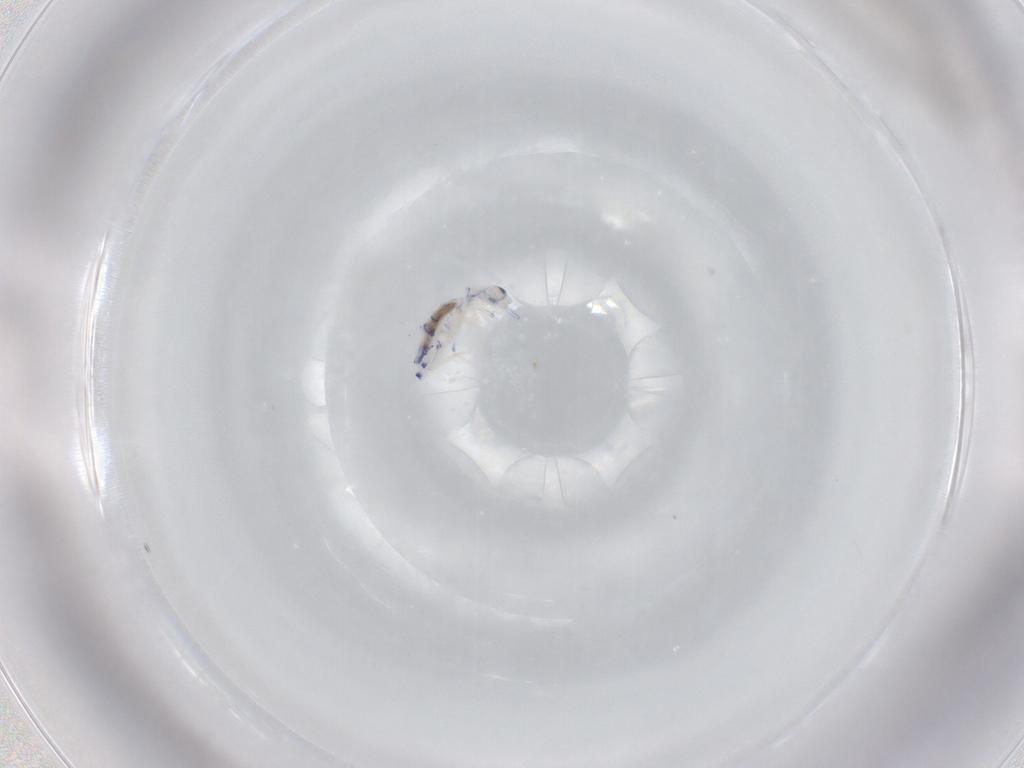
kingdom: Animalia
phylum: Arthropoda
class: Collembola
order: Entomobryomorpha
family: Entomobryidae
